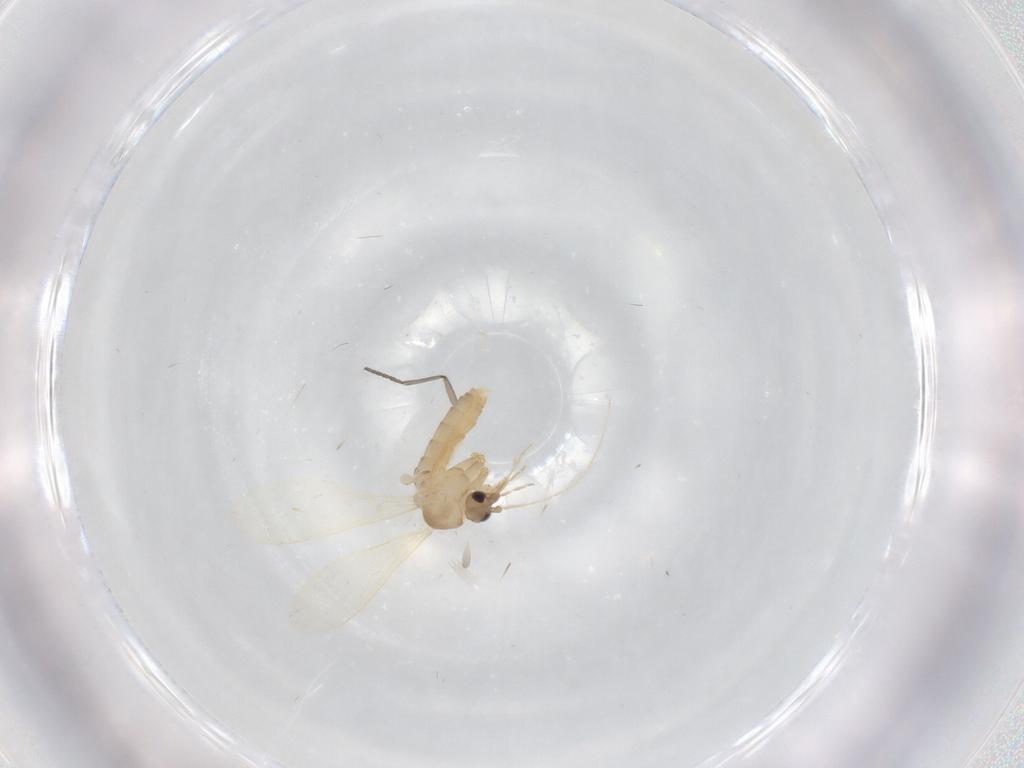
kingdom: Animalia
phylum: Arthropoda
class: Insecta
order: Diptera
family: Psychodidae
